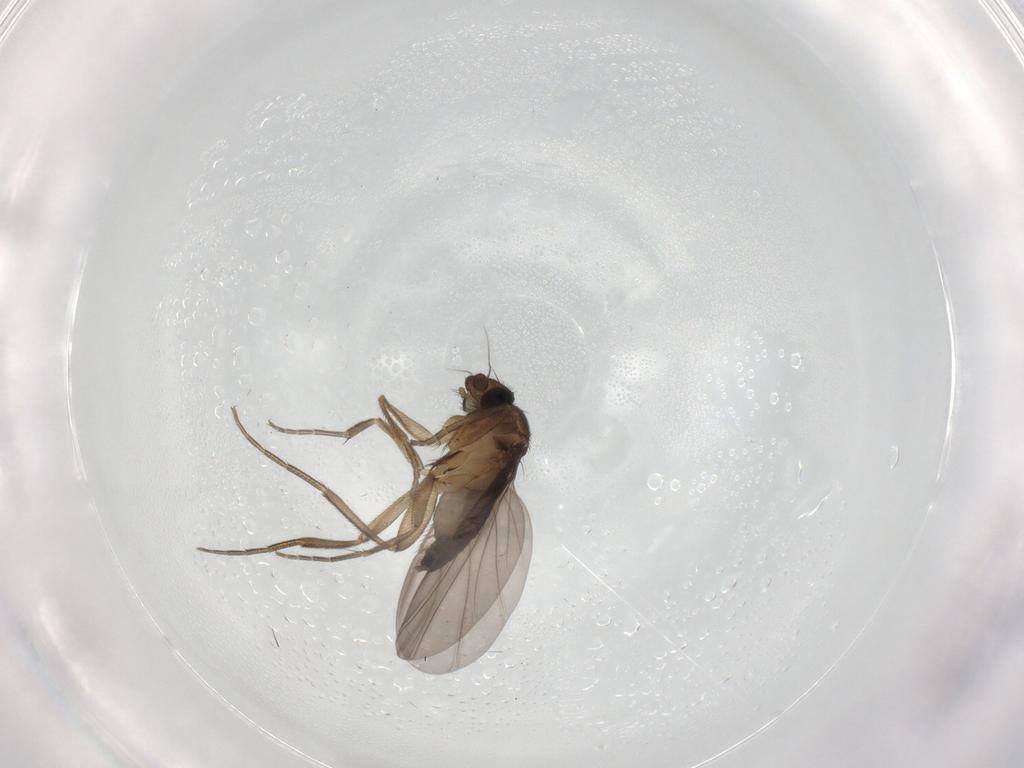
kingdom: Animalia
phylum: Arthropoda
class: Insecta
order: Diptera
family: Phoridae
